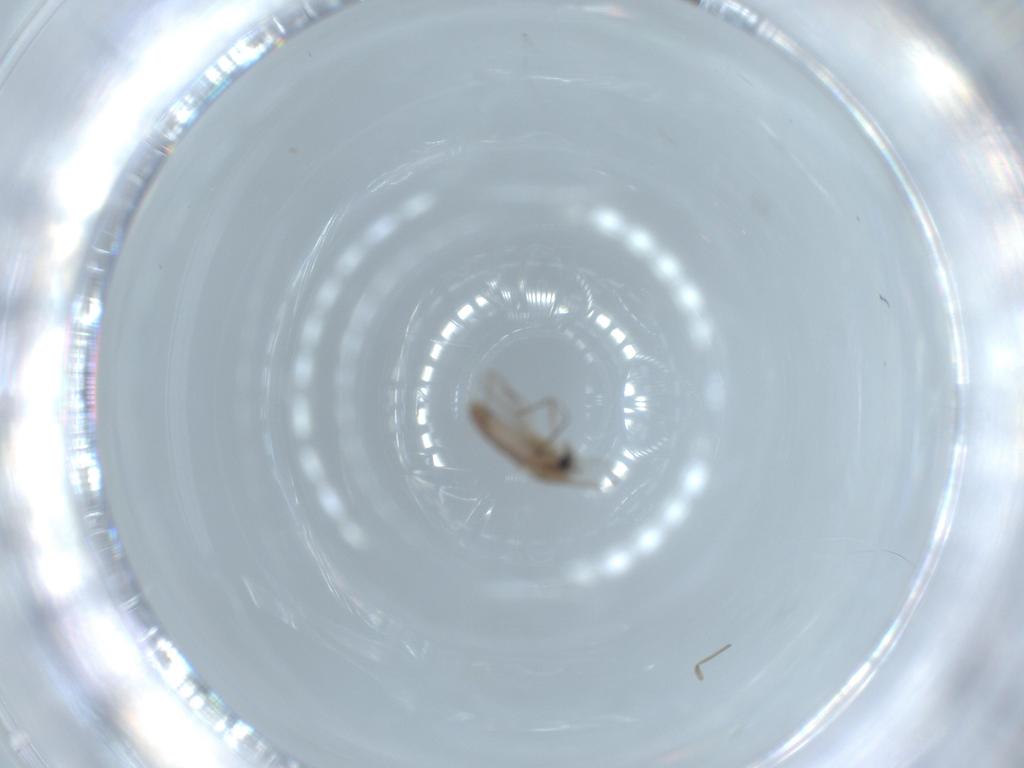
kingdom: Animalia
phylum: Arthropoda
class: Insecta
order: Diptera
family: Chironomidae
